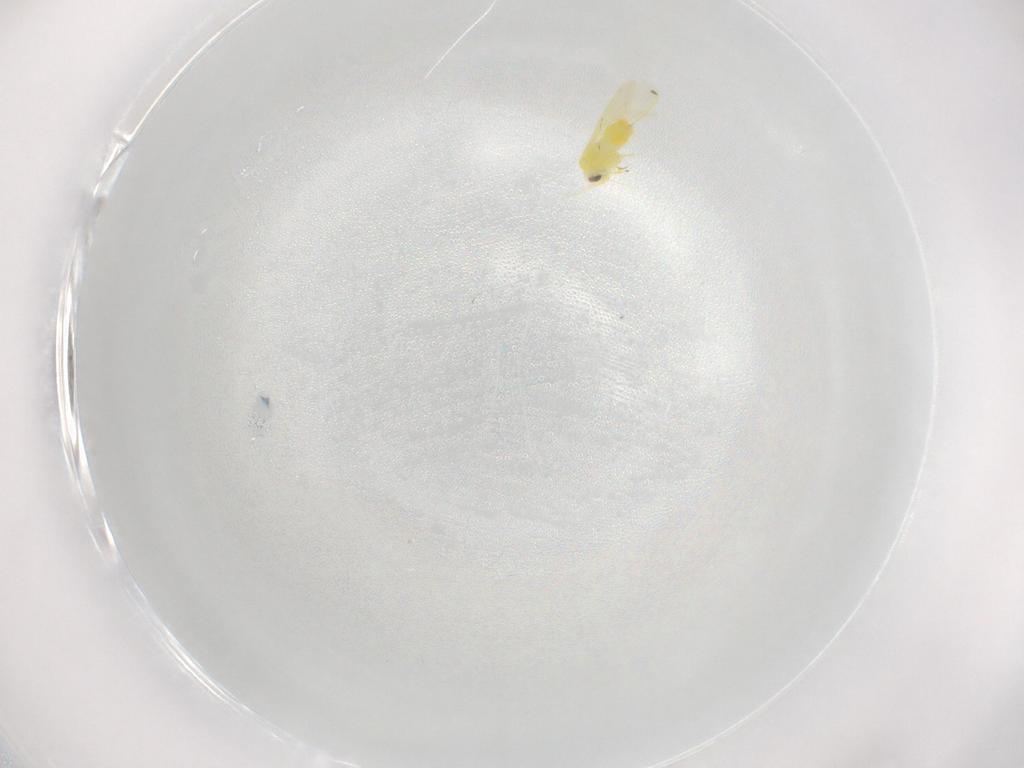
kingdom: Animalia
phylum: Arthropoda
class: Insecta
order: Hemiptera
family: Aleyrodidae
